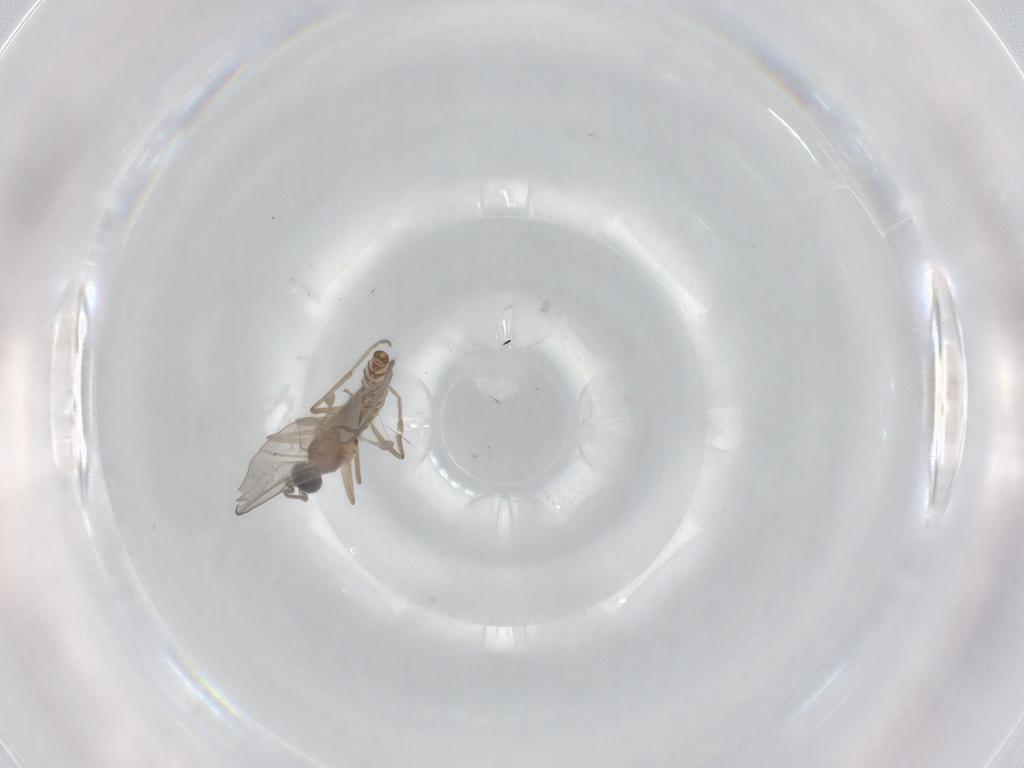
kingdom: Animalia
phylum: Arthropoda
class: Insecta
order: Diptera
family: Cecidomyiidae
